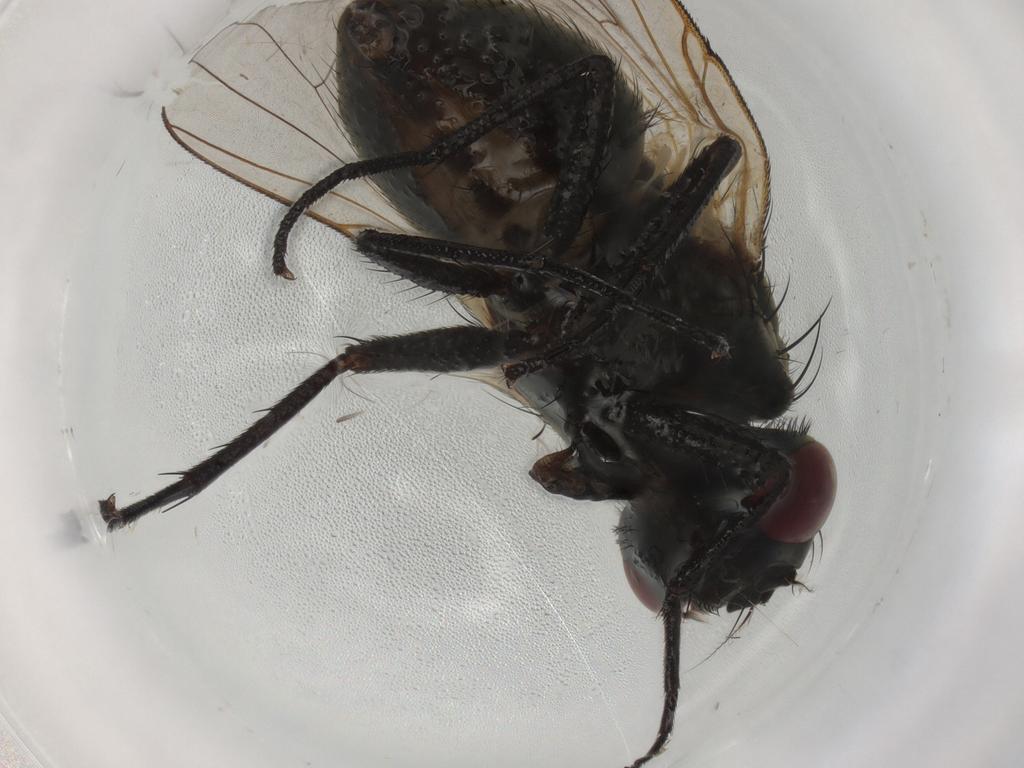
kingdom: Animalia
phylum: Arthropoda
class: Insecta
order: Diptera
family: Muscidae
